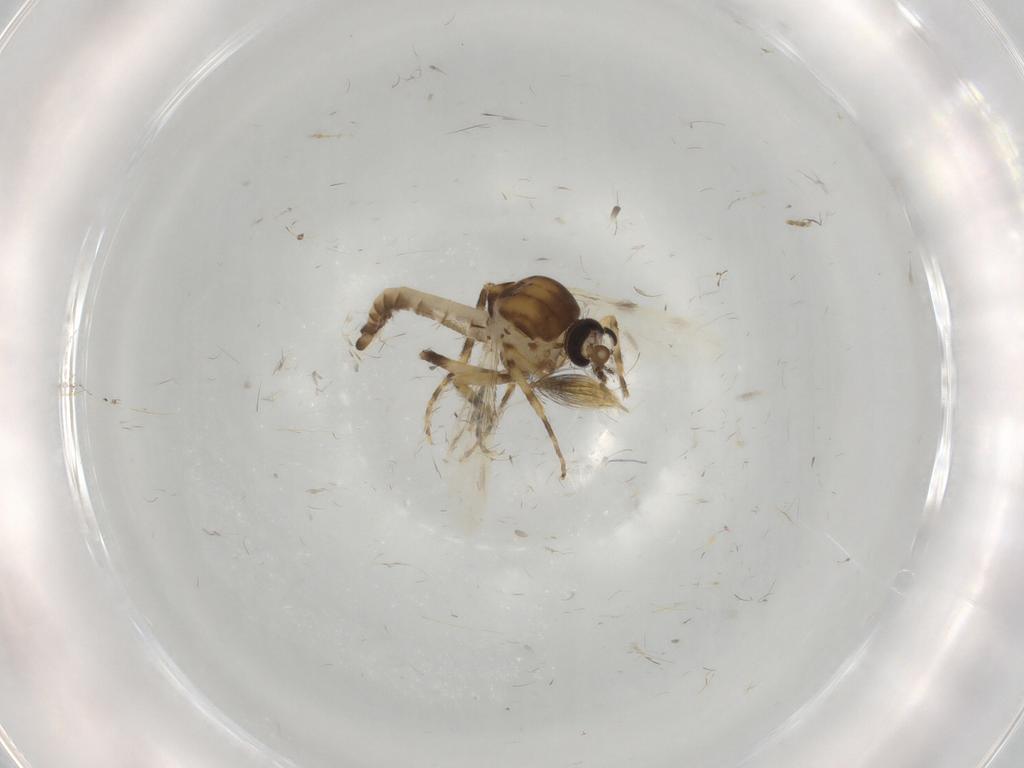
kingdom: Animalia
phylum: Arthropoda
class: Insecta
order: Diptera
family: Ceratopogonidae
